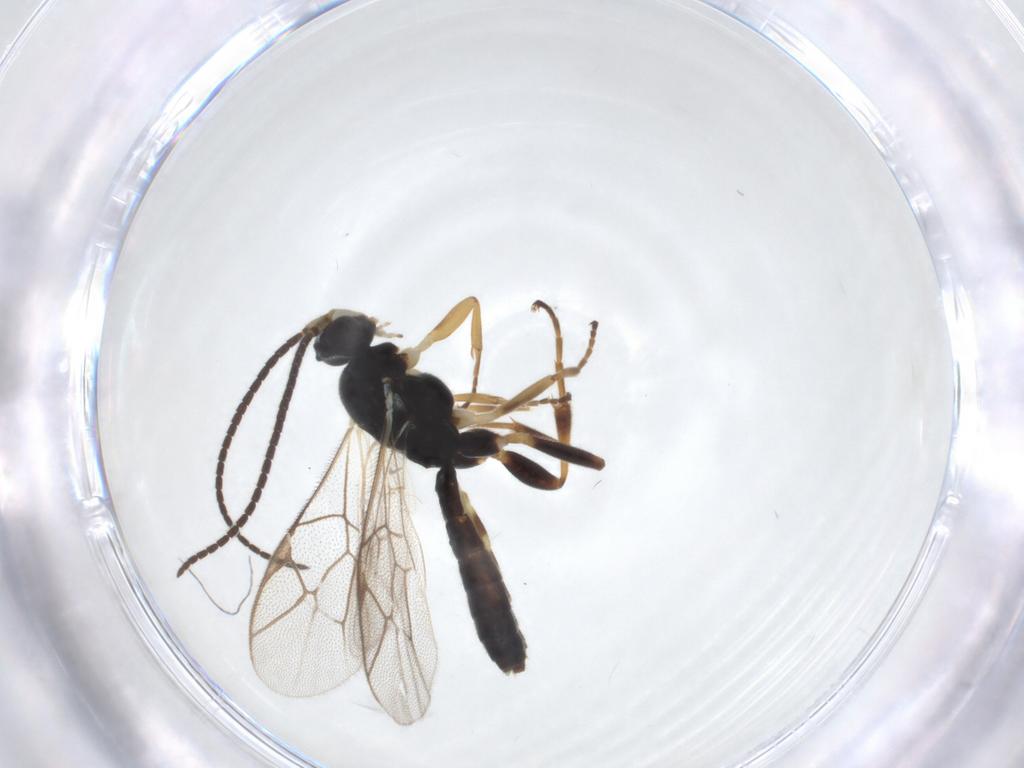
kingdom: Animalia
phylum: Arthropoda
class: Insecta
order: Hymenoptera
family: Ichneumonidae
